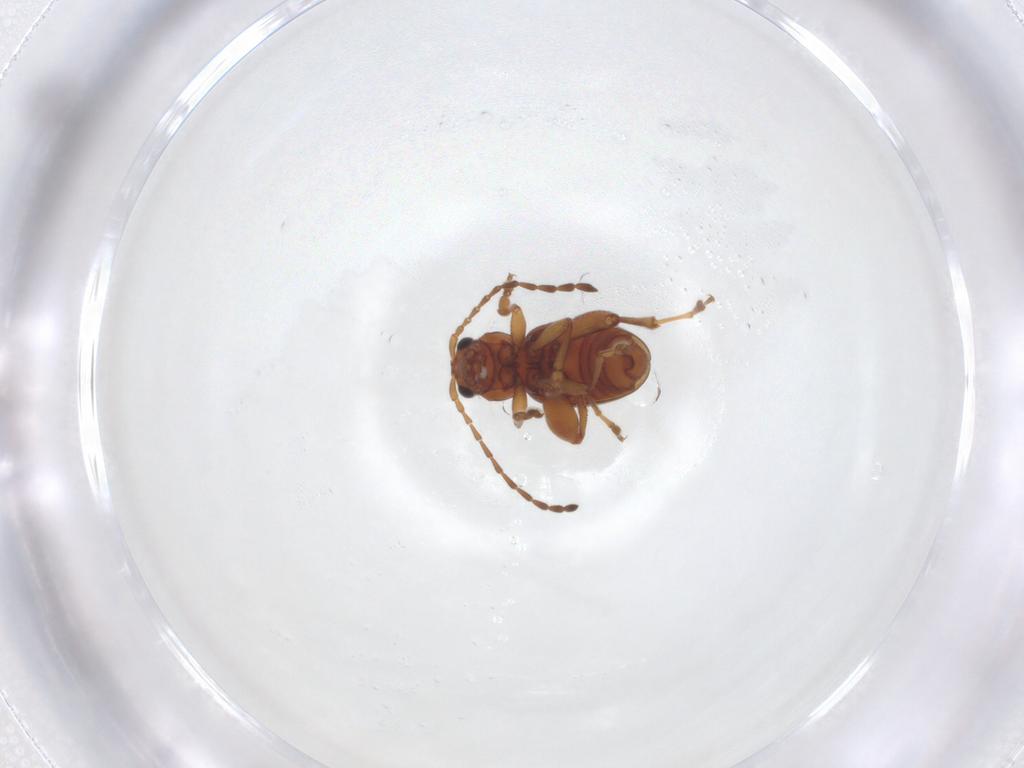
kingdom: Animalia
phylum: Arthropoda
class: Insecta
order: Coleoptera
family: Chrysomelidae
